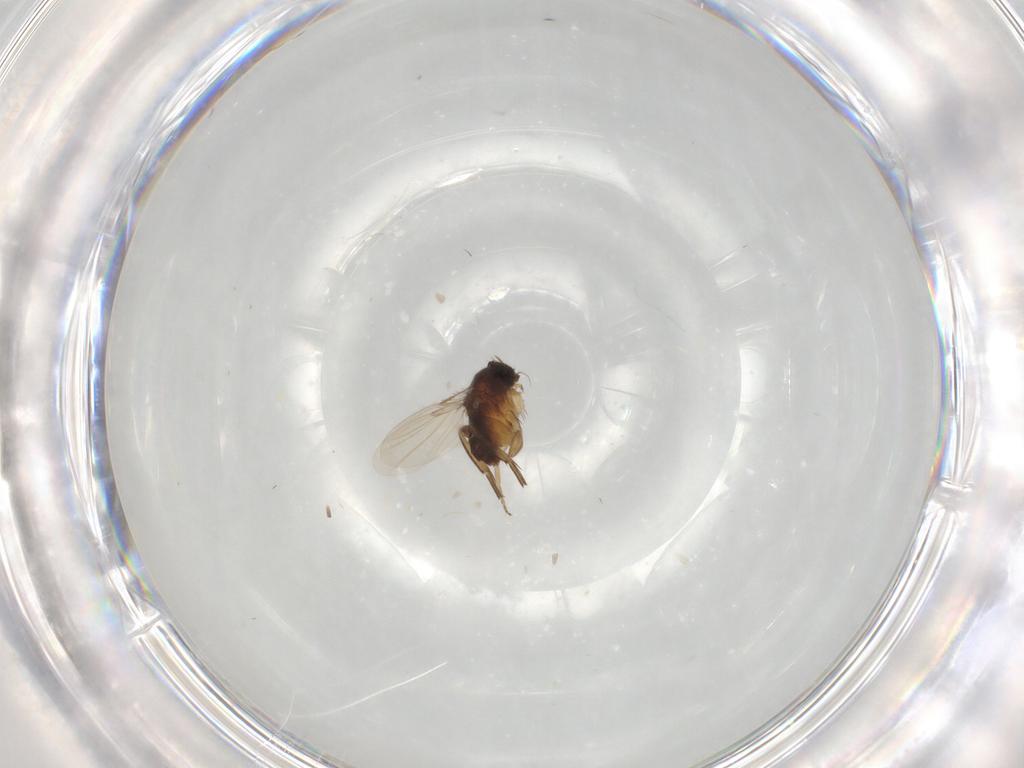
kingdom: Animalia
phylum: Arthropoda
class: Insecta
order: Diptera
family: Phoridae
